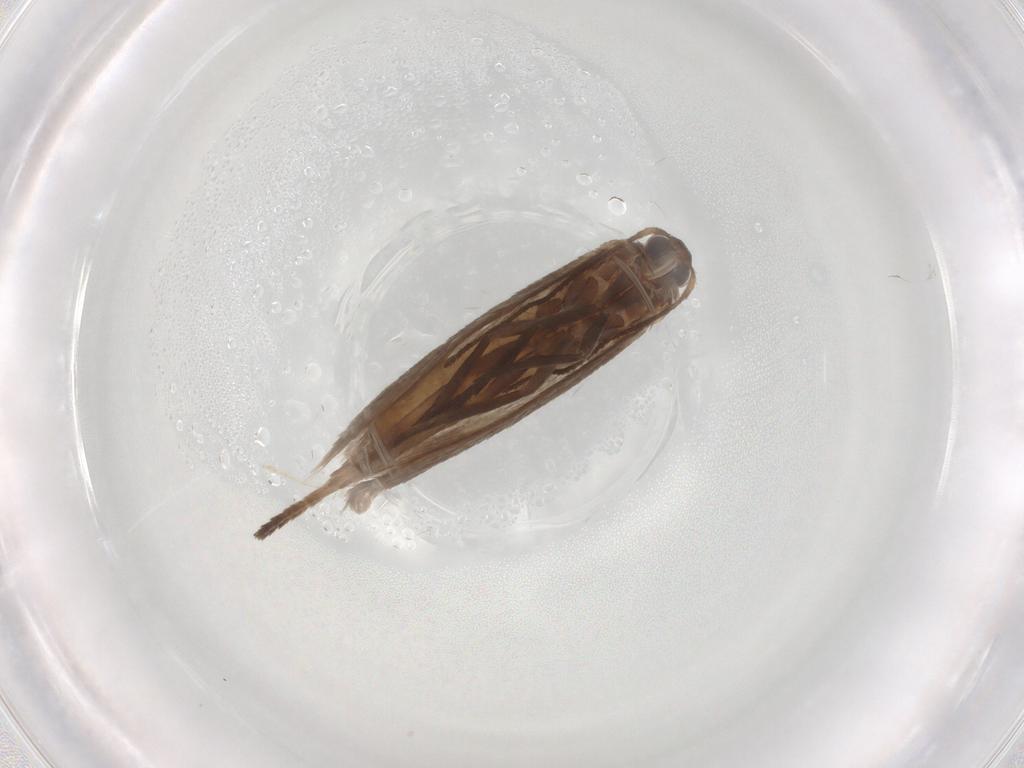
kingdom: Animalia
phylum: Arthropoda
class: Insecta
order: Lepidoptera
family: Limacodidae
